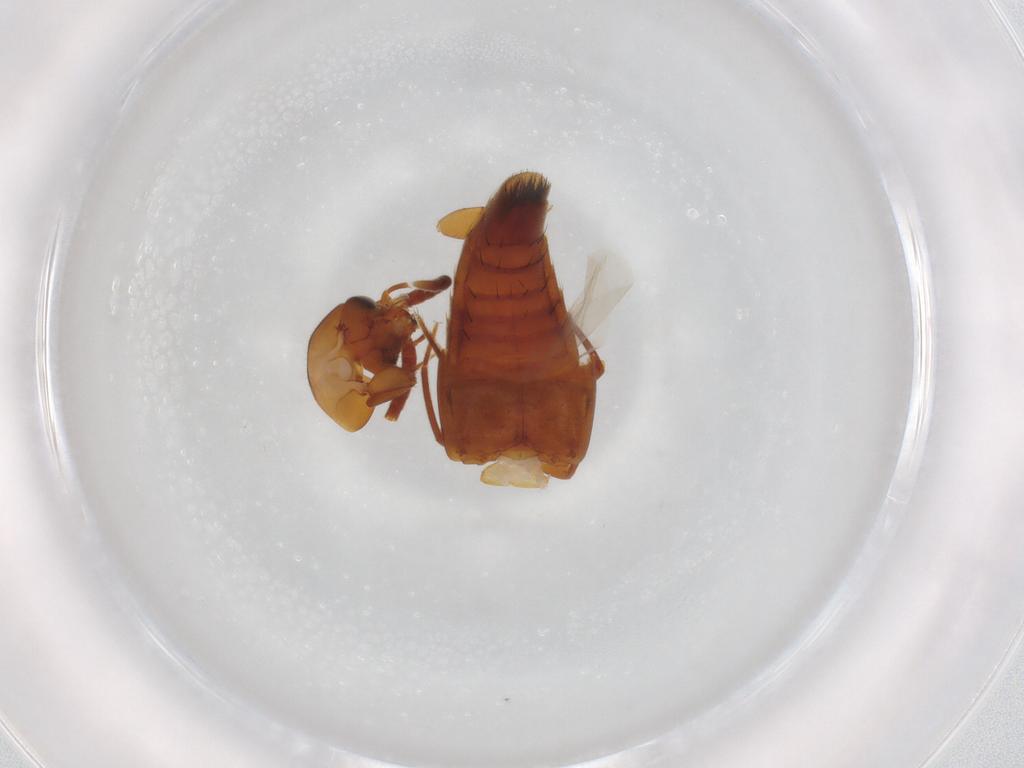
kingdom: Animalia
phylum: Arthropoda
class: Insecta
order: Coleoptera
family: Staphylinidae
